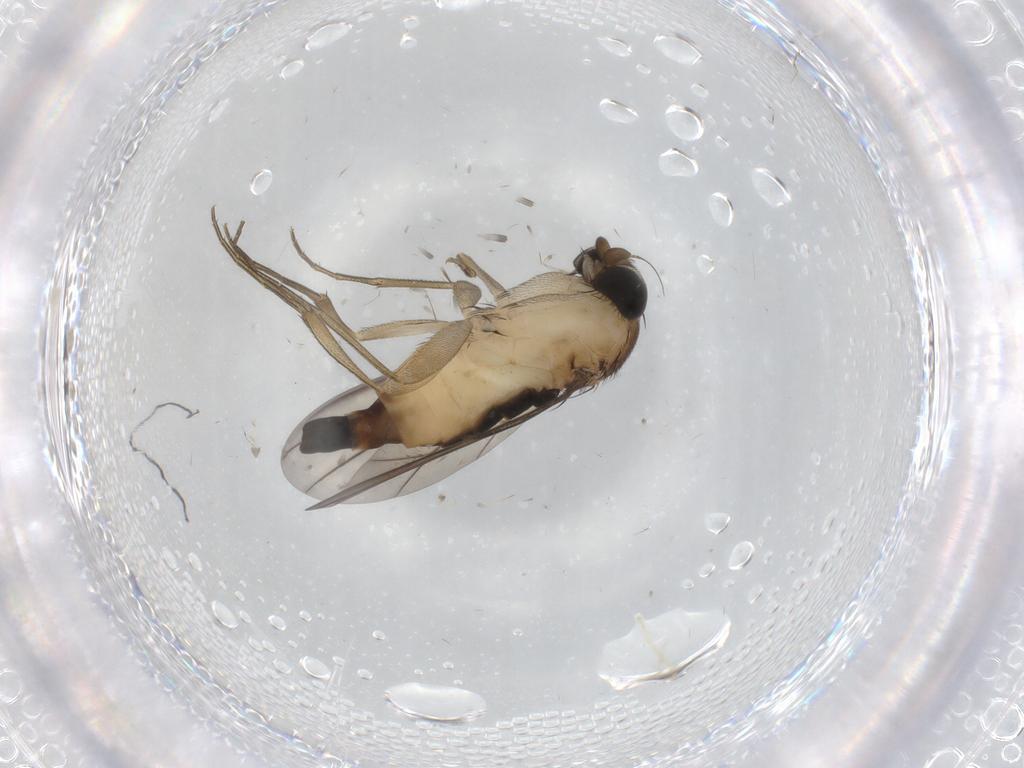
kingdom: Animalia
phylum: Arthropoda
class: Insecta
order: Diptera
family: Phoridae
